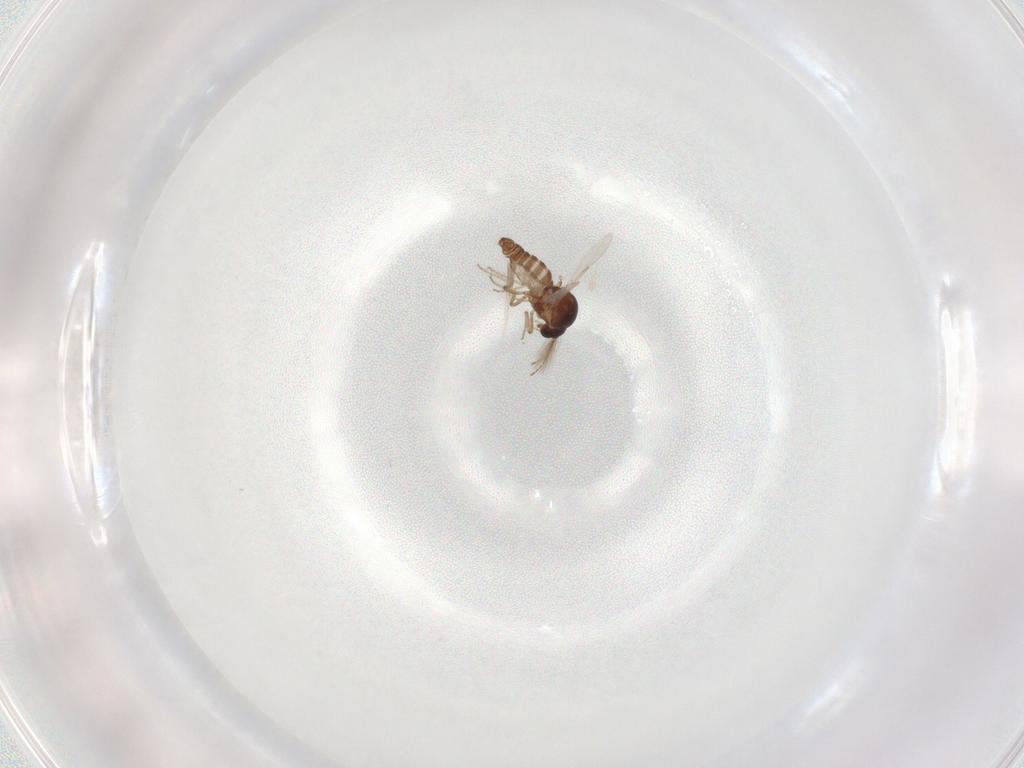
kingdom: Animalia
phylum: Arthropoda
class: Insecta
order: Diptera
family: Ceratopogonidae
